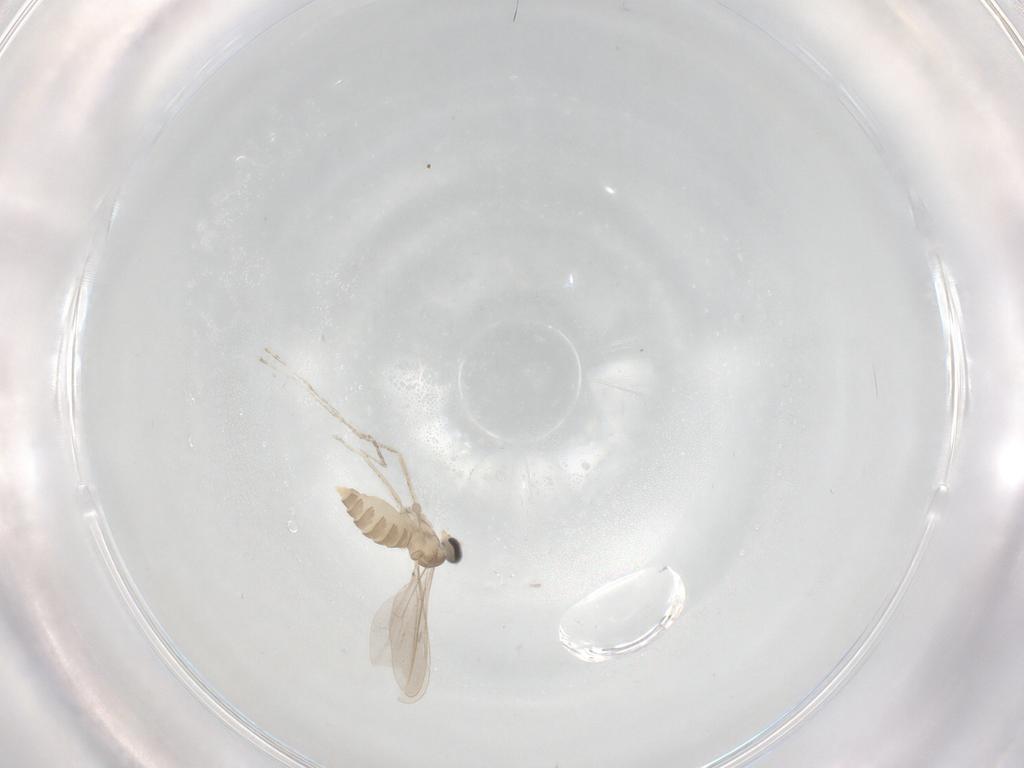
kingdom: Animalia
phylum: Arthropoda
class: Insecta
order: Diptera
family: Cecidomyiidae
